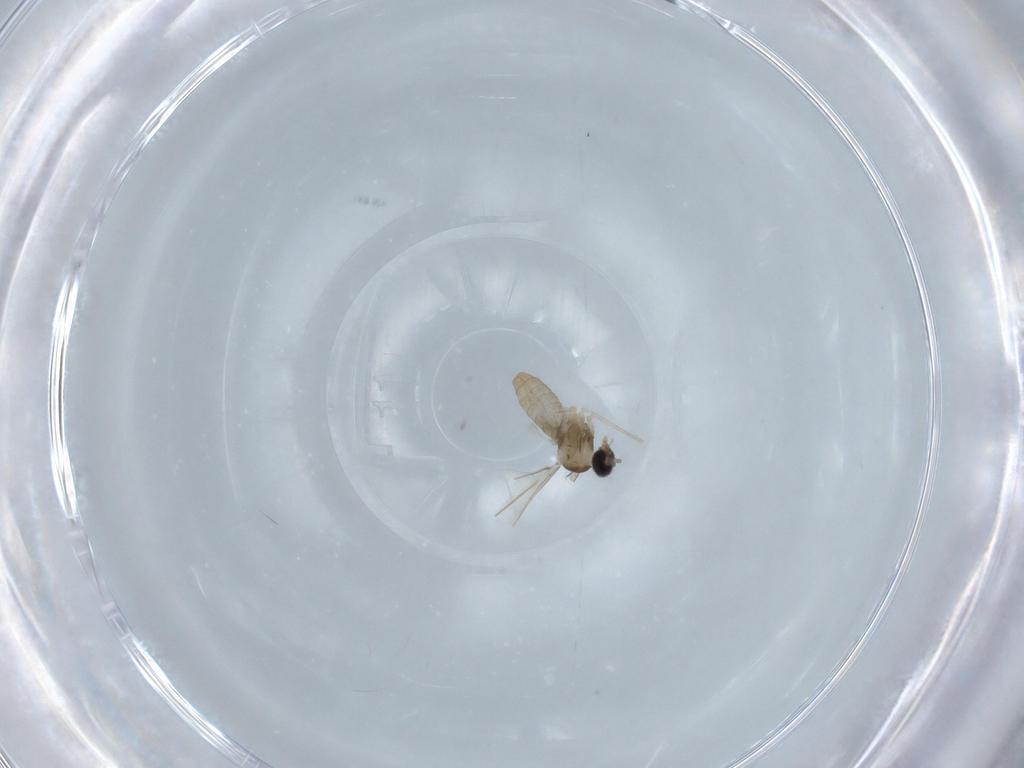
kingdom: Animalia
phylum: Arthropoda
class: Insecta
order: Diptera
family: Cecidomyiidae
